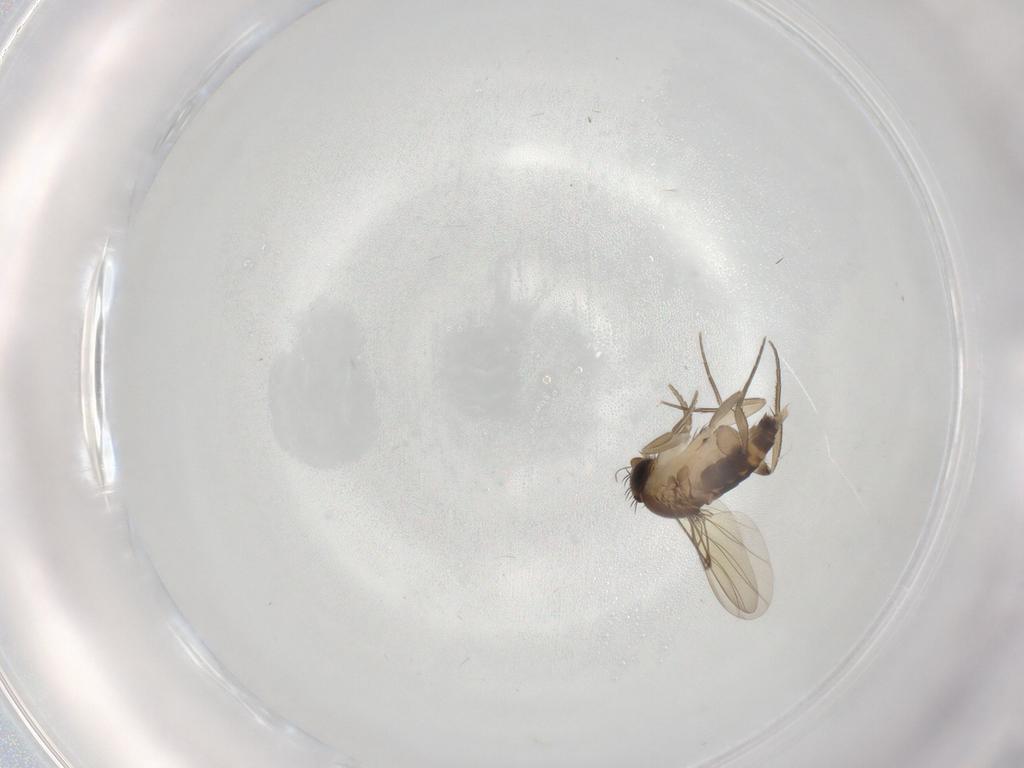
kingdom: Animalia
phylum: Arthropoda
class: Insecta
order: Diptera
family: Phoridae
